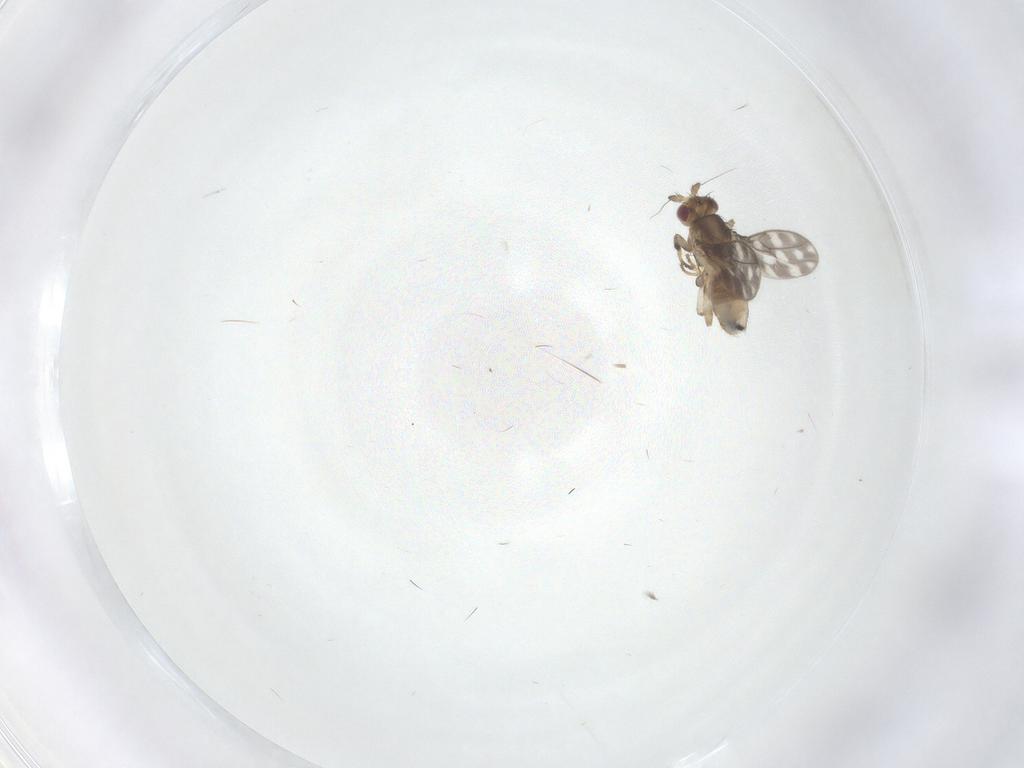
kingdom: Animalia
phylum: Arthropoda
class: Insecta
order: Diptera
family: Sphaeroceridae
